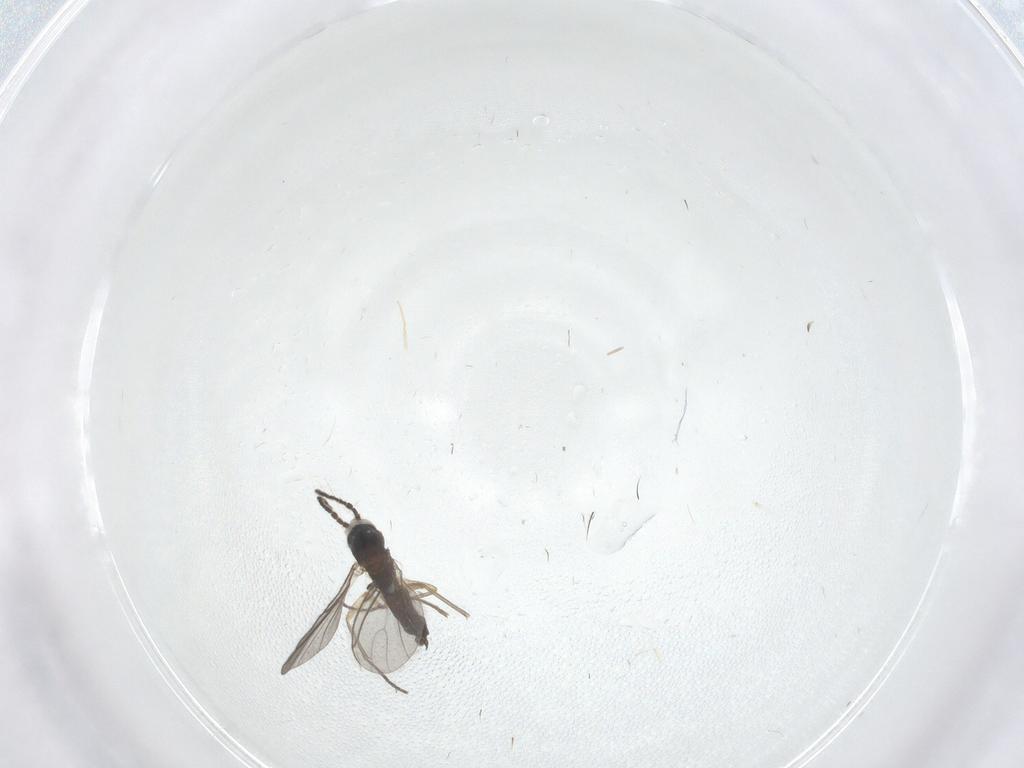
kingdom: Animalia
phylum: Arthropoda
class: Insecta
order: Diptera
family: Sciaridae
